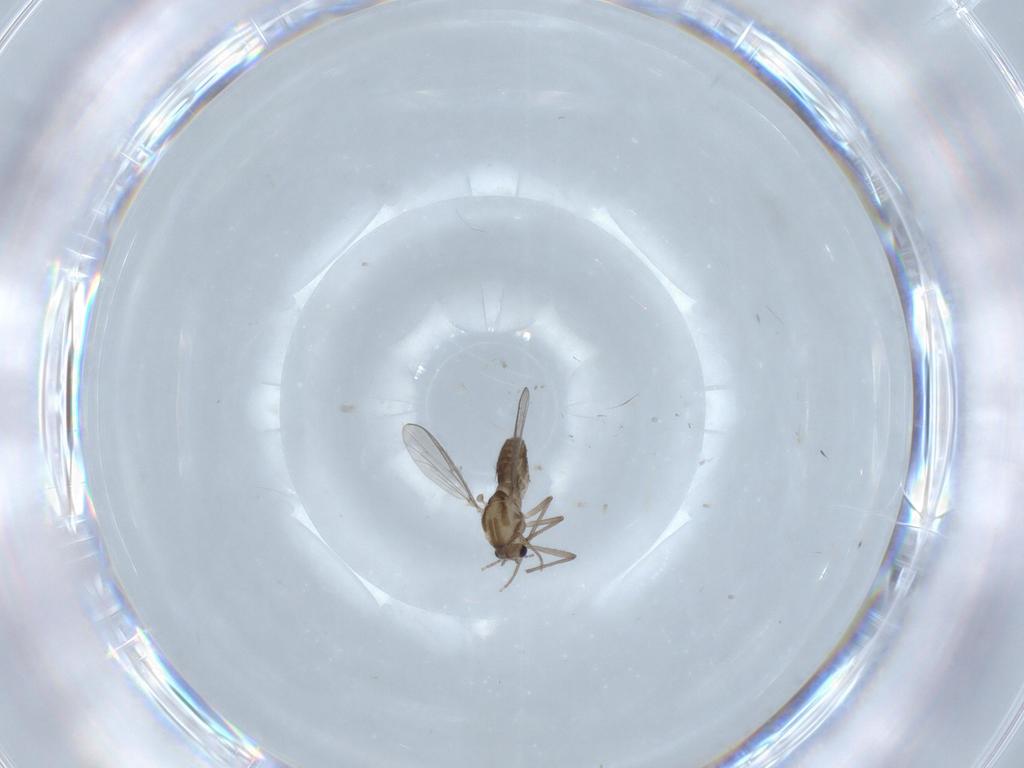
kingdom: Animalia
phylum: Arthropoda
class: Insecta
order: Diptera
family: Chironomidae
